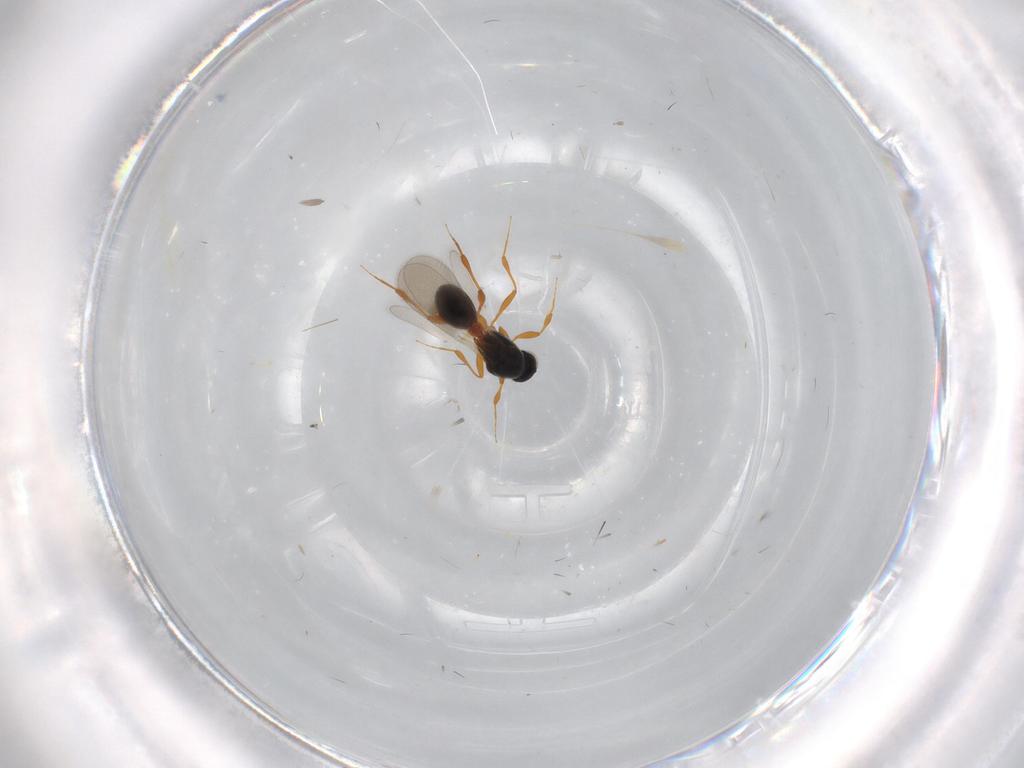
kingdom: Animalia
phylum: Arthropoda
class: Insecta
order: Hymenoptera
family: Platygastridae
